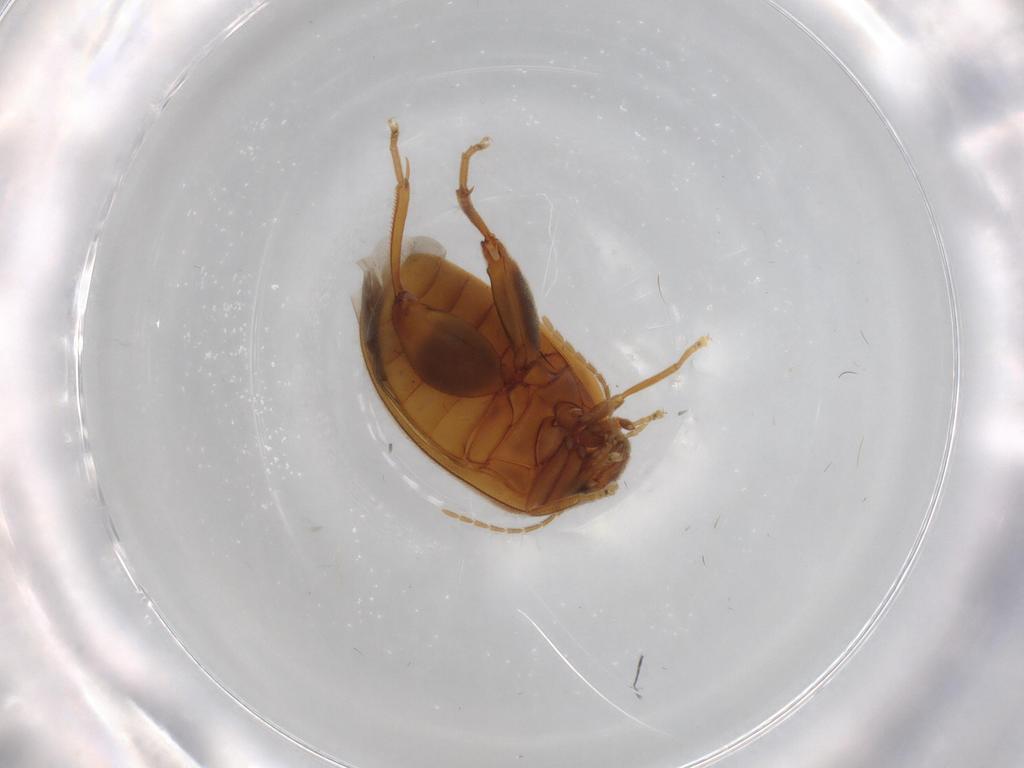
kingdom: Animalia
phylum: Arthropoda
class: Insecta
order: Coleoptera
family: Scirtidae
